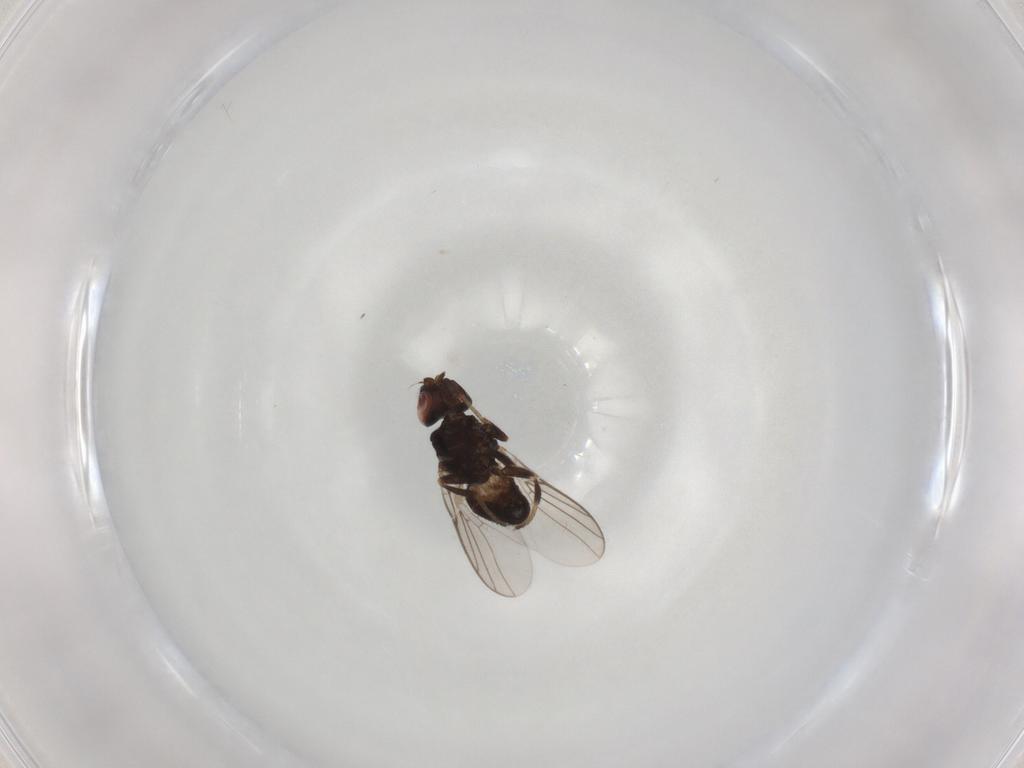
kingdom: Animalia
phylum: Arthropoda
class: Insecta
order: Diptera
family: Chloropidae
